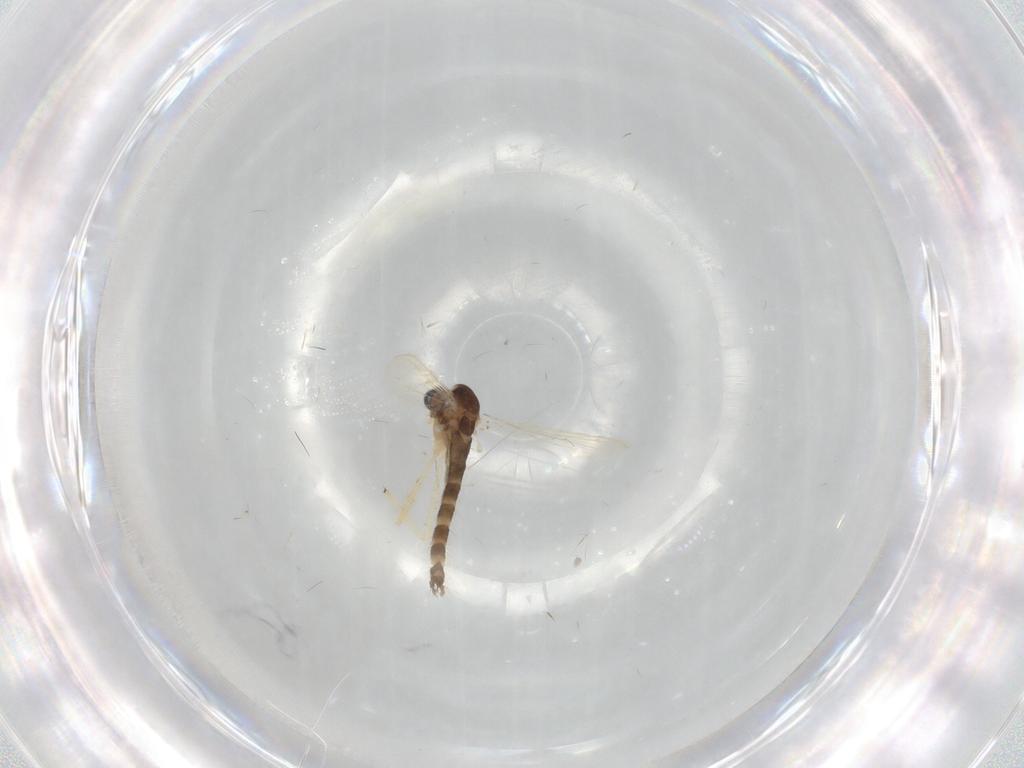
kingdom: Animalia
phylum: Arthropoda
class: Insecta
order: Diptera
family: Chironomidae
